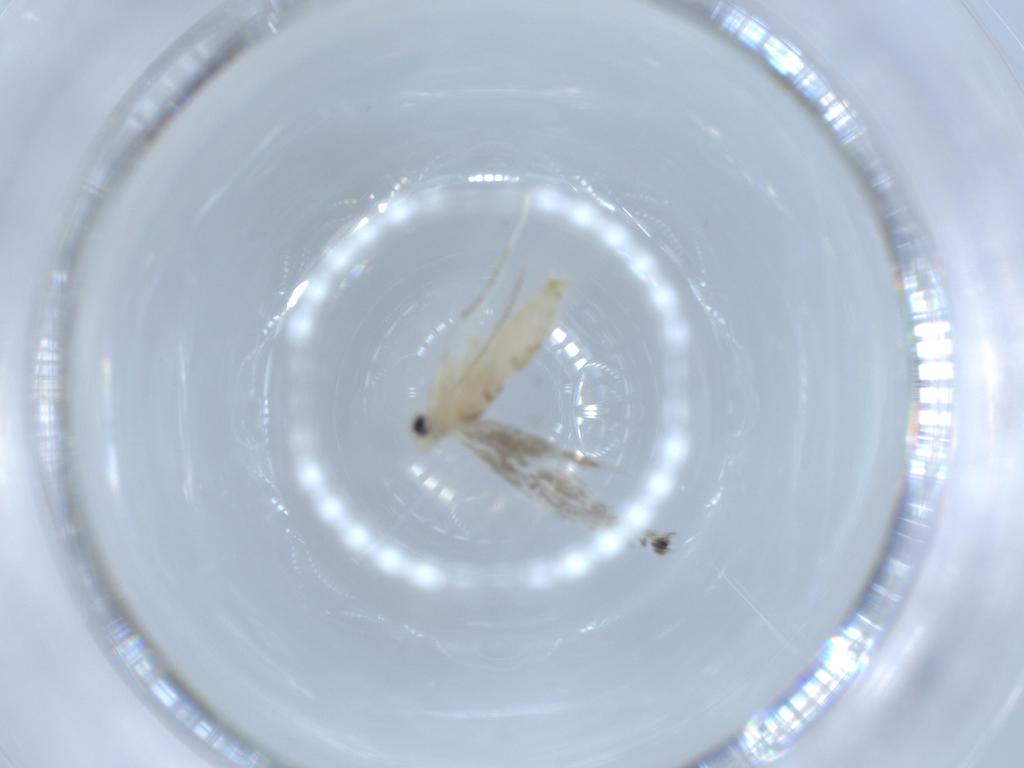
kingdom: Animalia
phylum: Arthropoda
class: Insecta
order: Lepidoptera
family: Gracillariidae
